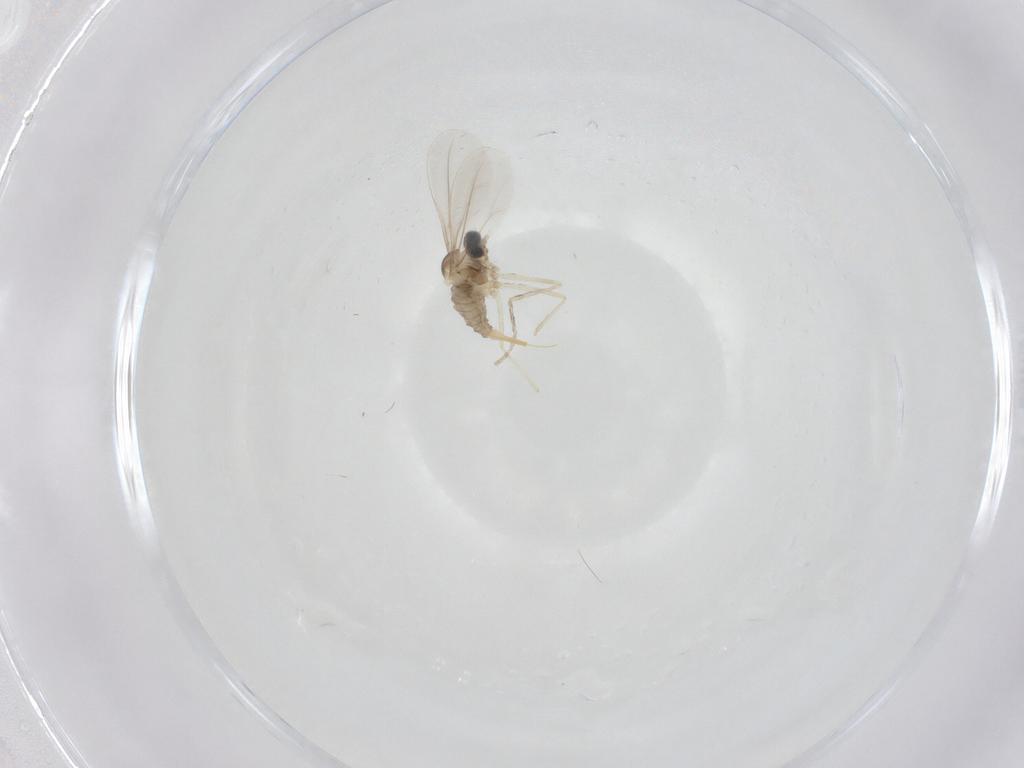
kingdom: Animalia
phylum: Arthropoda
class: Insecta
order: Diptera
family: Cecidomyiidae
